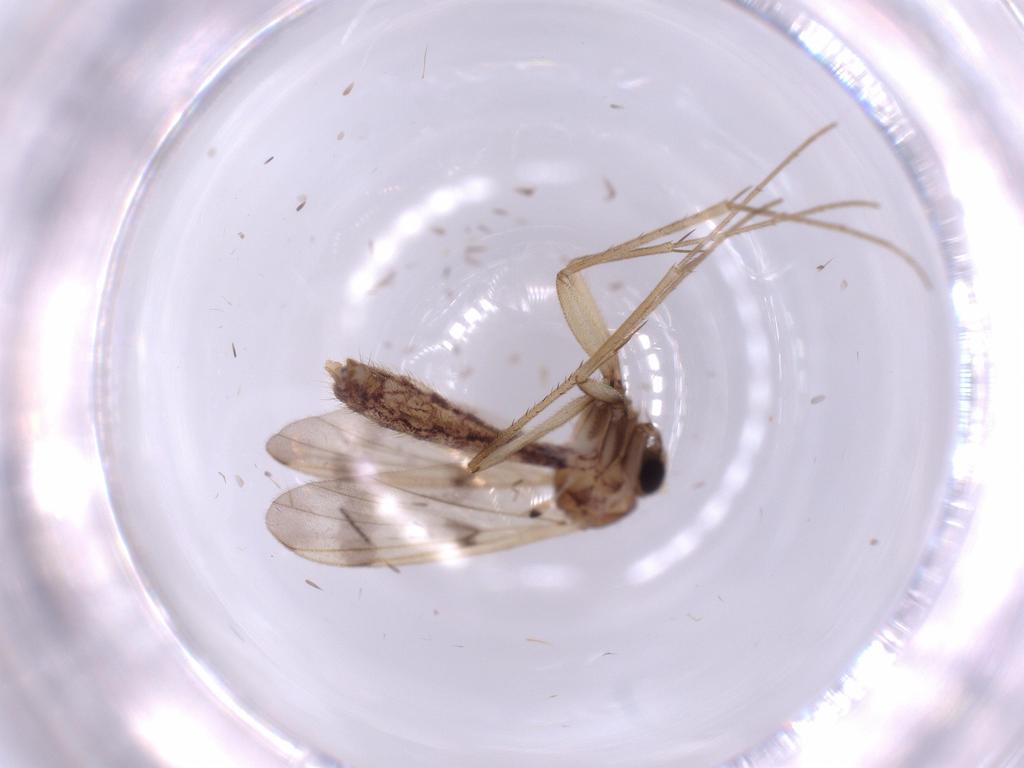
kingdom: Animalia
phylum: Arthropoda
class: Insecta
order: Diptera
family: Mycetophilidae
